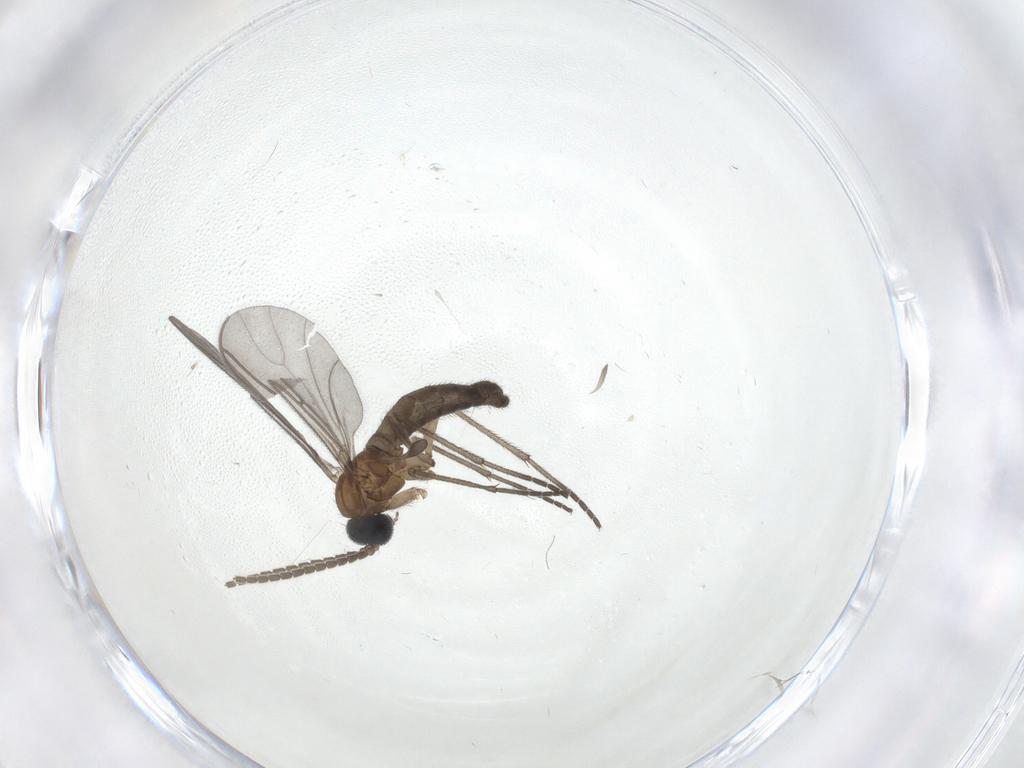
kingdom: Animalia
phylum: Arthropoda
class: Insecta
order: Diptera
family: Sciaridae
